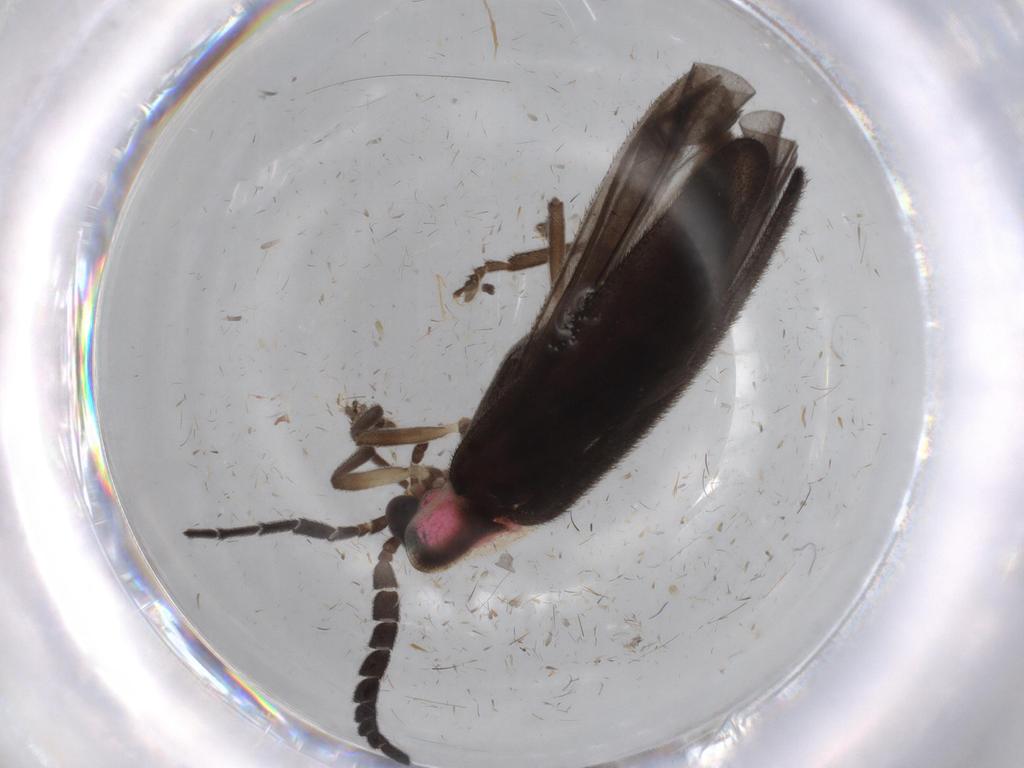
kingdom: Animalia
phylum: Arthropoda
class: Insecta
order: Coleoptera
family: Lampyridae
